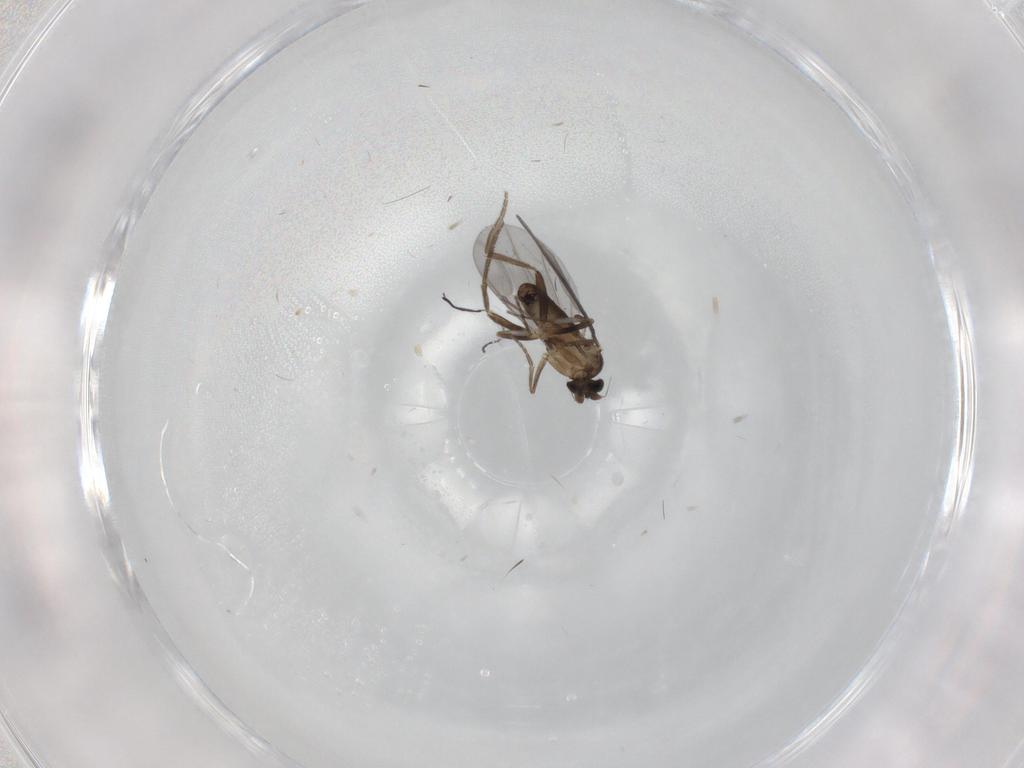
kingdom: Animalia
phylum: Arthropoda
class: Insecta
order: Diptera
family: Phoridae
